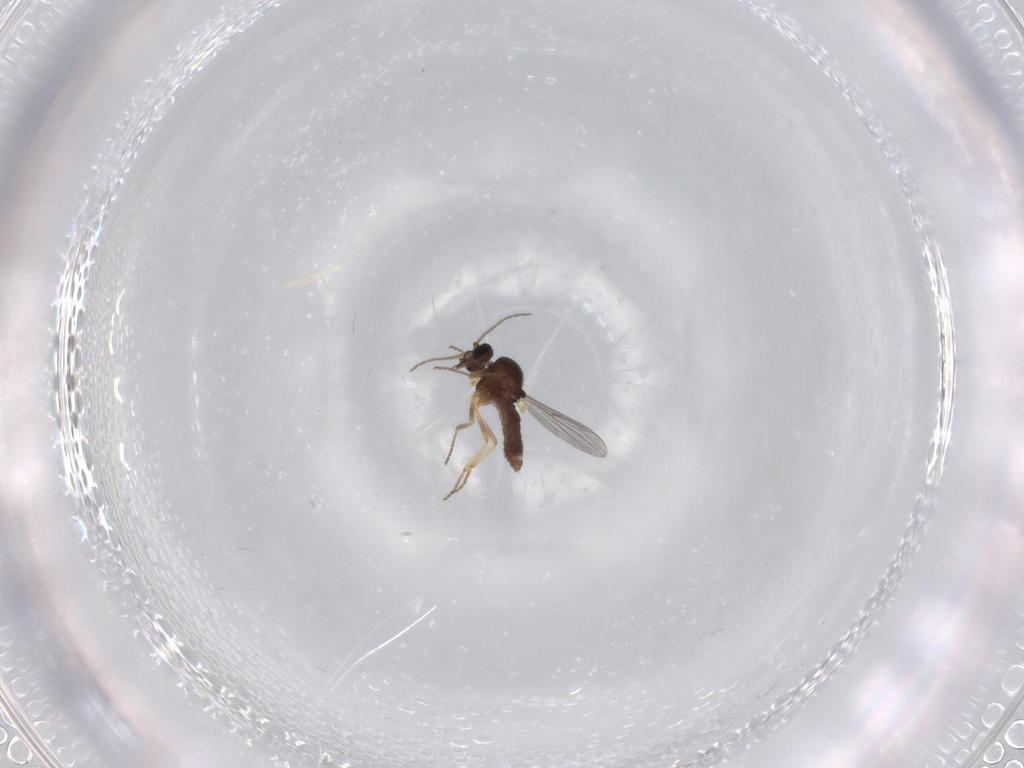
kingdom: Animalia
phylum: Arthropoda
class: Insecta
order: Diptera
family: Ceratopogonidae
